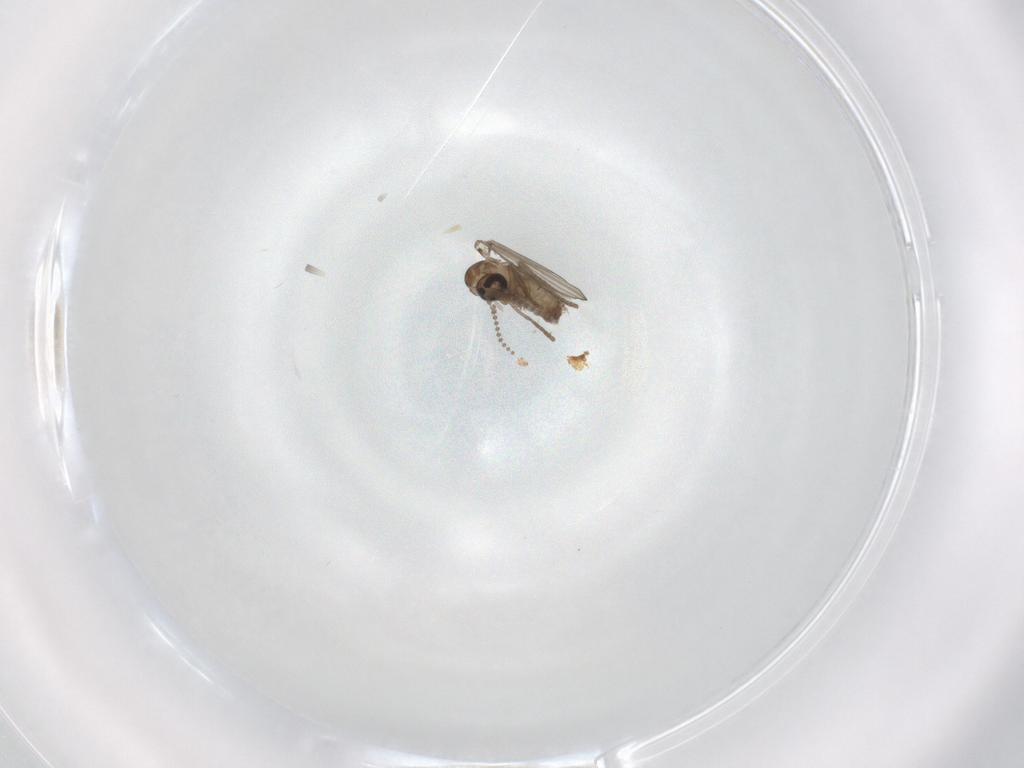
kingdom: Animalia
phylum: Arthropoda
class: Insecta
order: Diptera
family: Psychodidae
